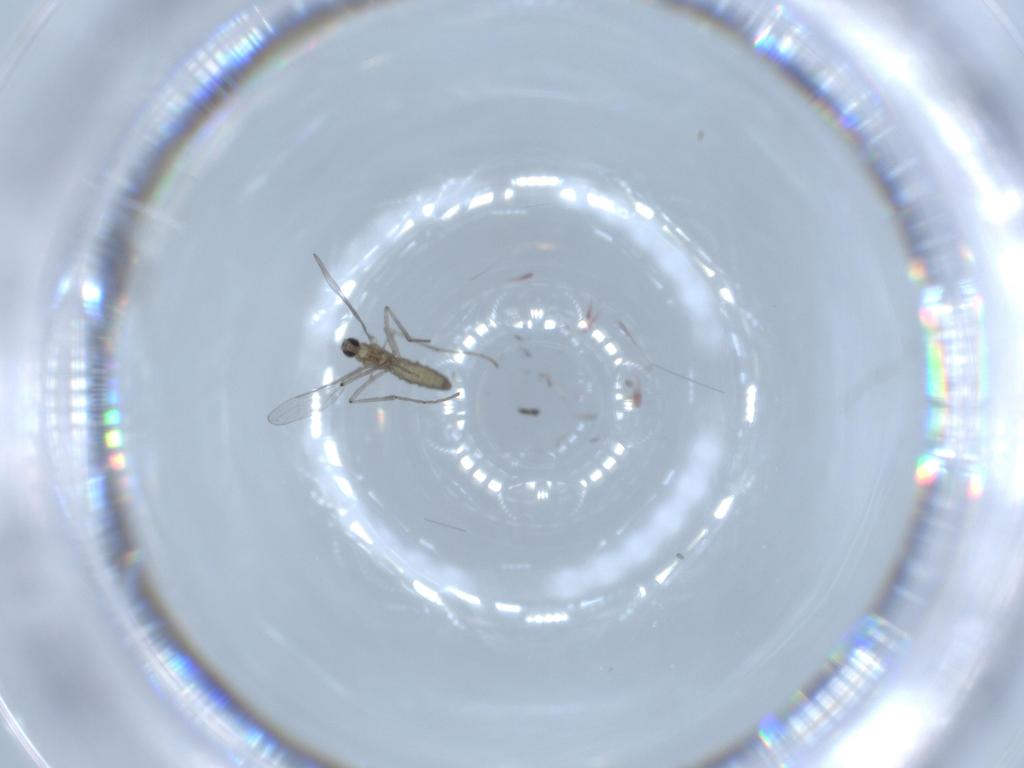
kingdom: Animalia
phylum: Arthropoda
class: Insecta
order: Diptera
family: Sciaridae
